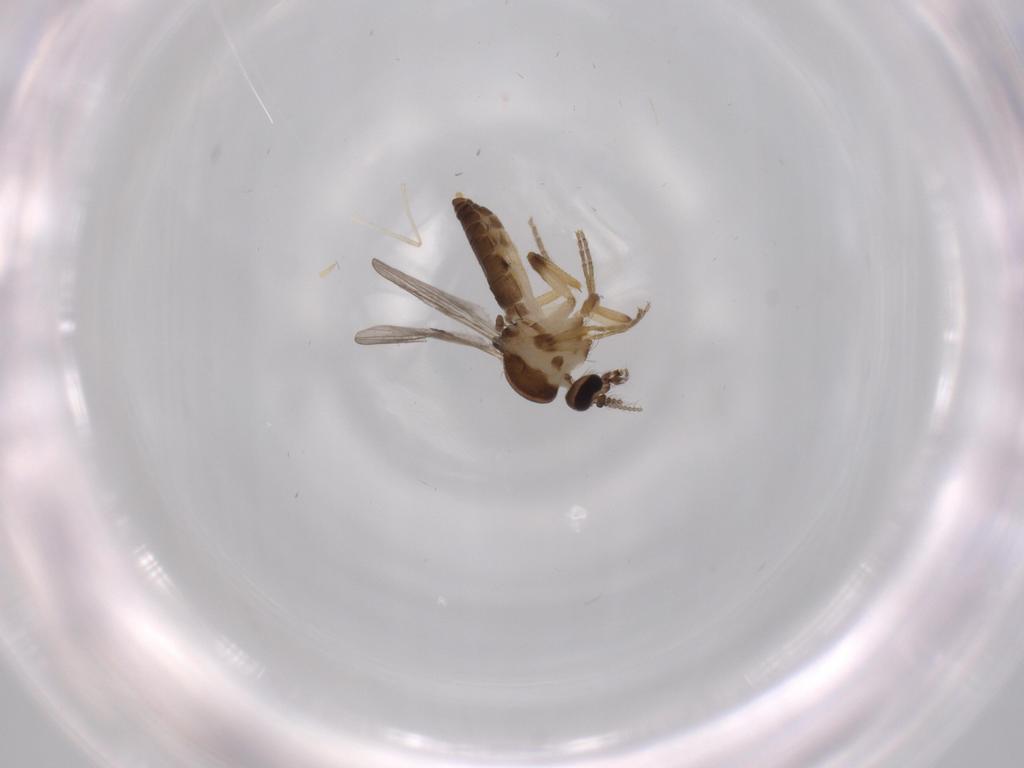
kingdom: Animalia
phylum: Arthropoda
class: Insecta
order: Diptera
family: Ceratopogonidae
